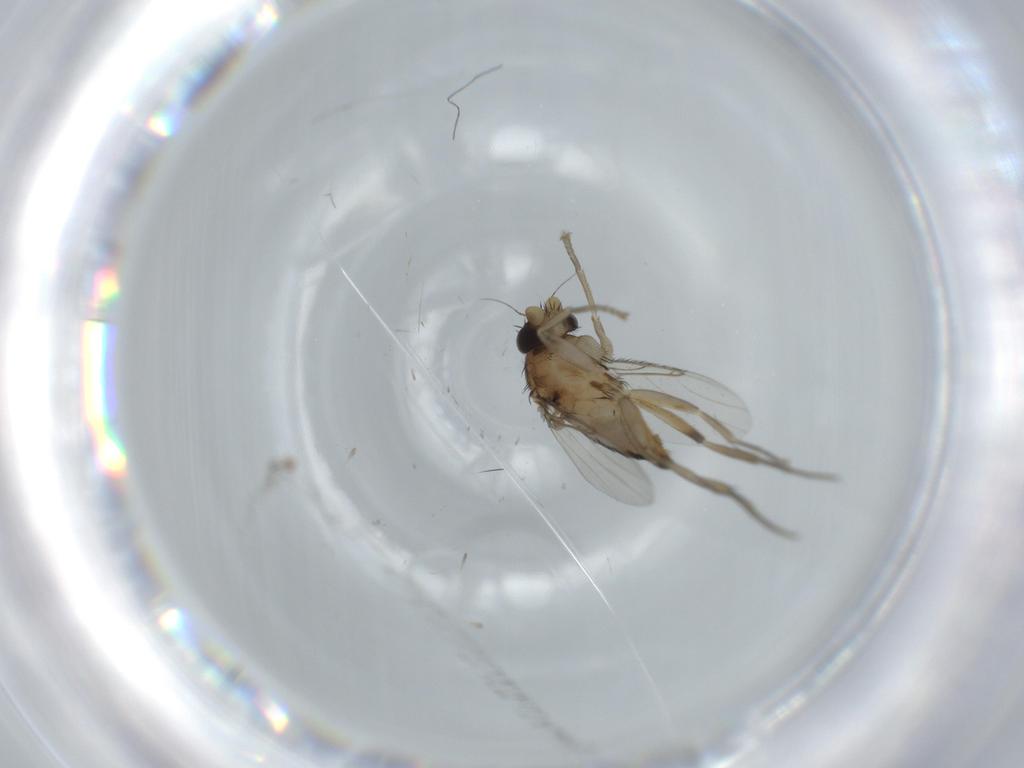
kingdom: Animalia
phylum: Arthropoda
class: Insecta
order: Diptera
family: Phoridae
